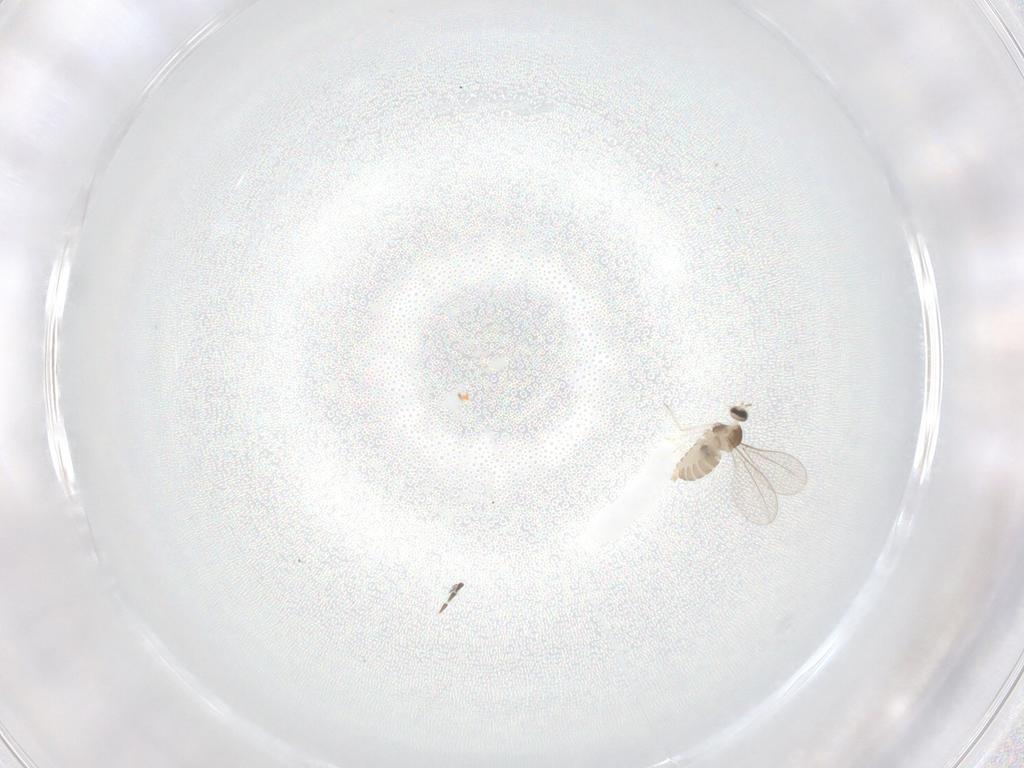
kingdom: Animalia
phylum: Arthropoda
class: Insecta
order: Diptera
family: Cecidomyiidae
